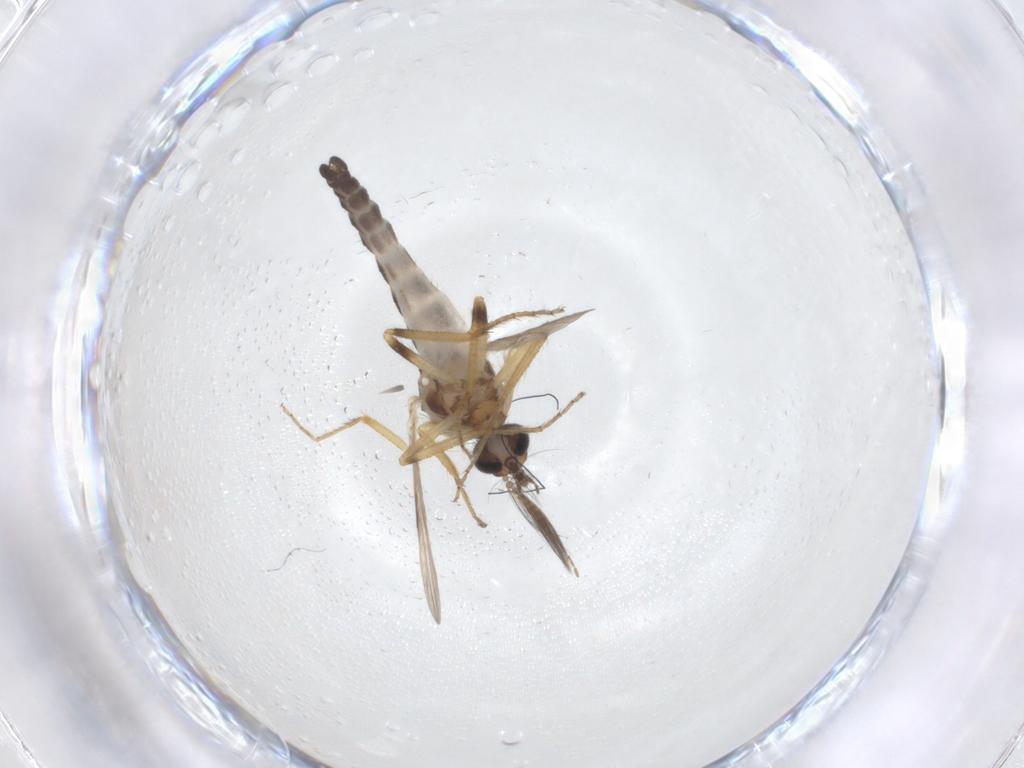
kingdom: Animalia
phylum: Arthropoda
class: Insecta
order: Diptera
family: Ceratopogonidae
